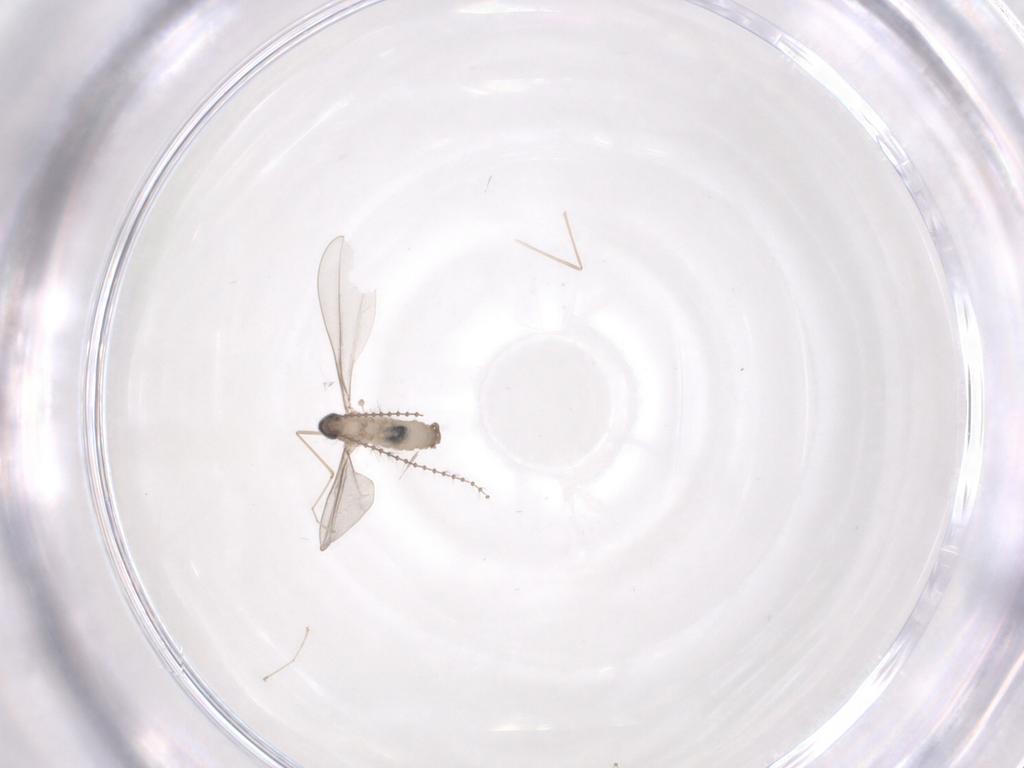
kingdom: Animalia
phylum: Arthropoda
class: Insecta
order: Diptera
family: Cecidomyiidae
